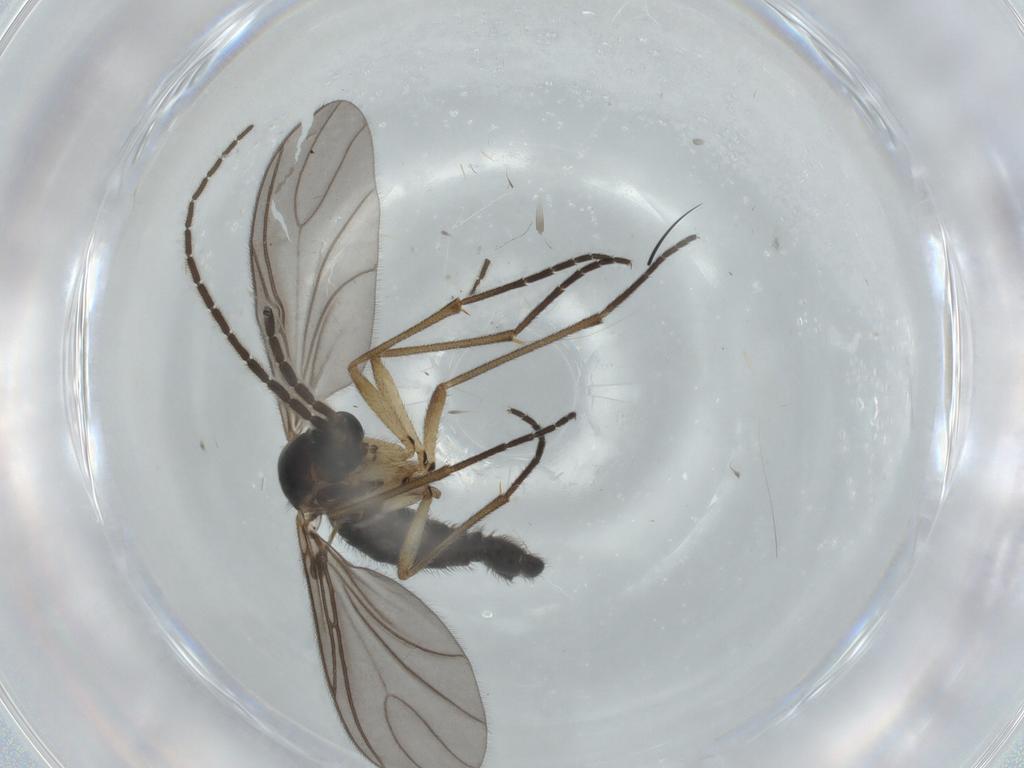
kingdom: Animalia
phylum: Arthropoda
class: Insecta
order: Diptera
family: Sciaridae
